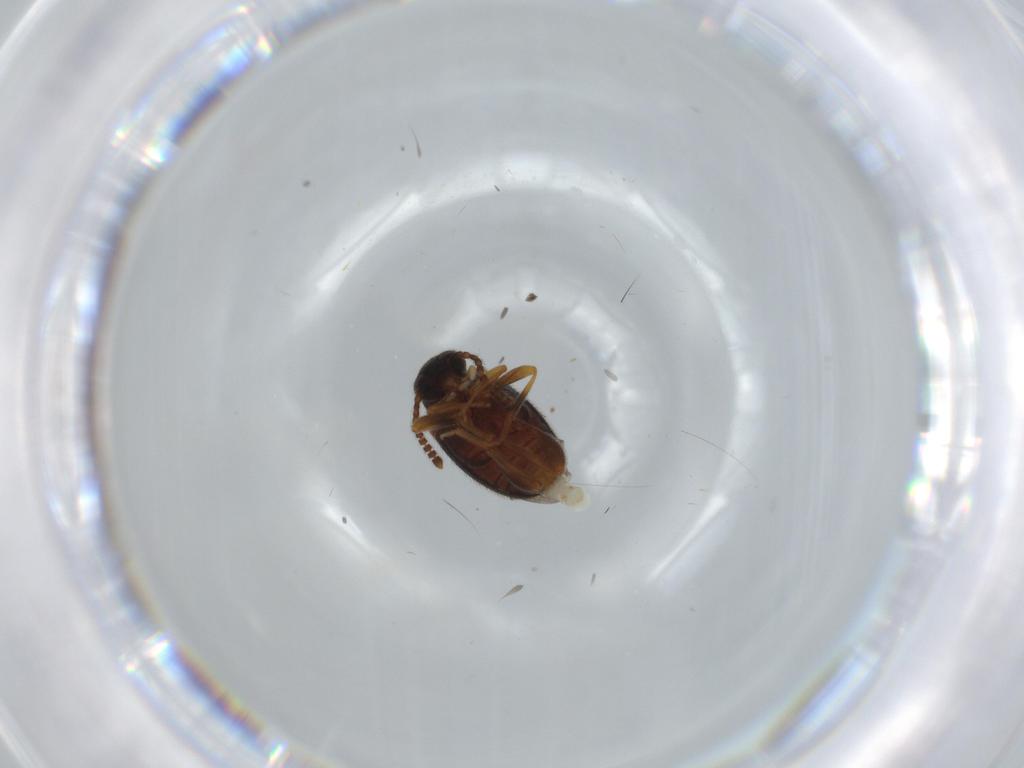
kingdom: Animalia
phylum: Arthropoda
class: Insecta
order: Coleoptera
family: Aderidae
